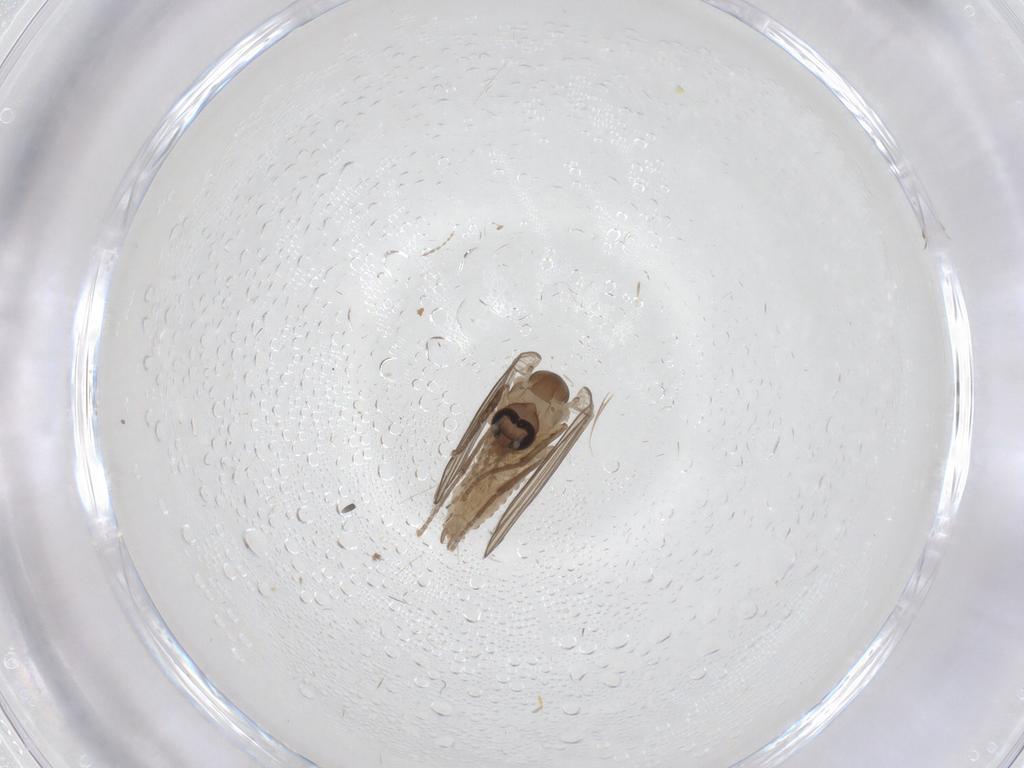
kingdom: Animalia
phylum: Arthropoda
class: Insecta
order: Diptera
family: Psychodidae
